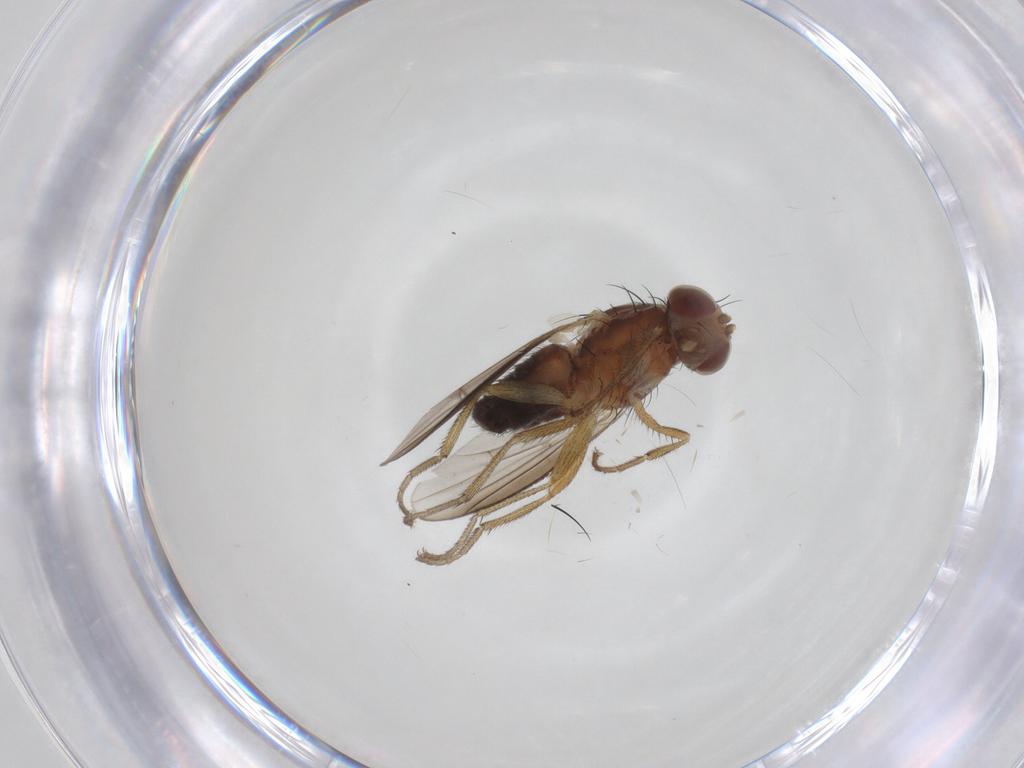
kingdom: Animalia
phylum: Arthropoda
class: Insecta
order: Diptera
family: Heleomyzidae
